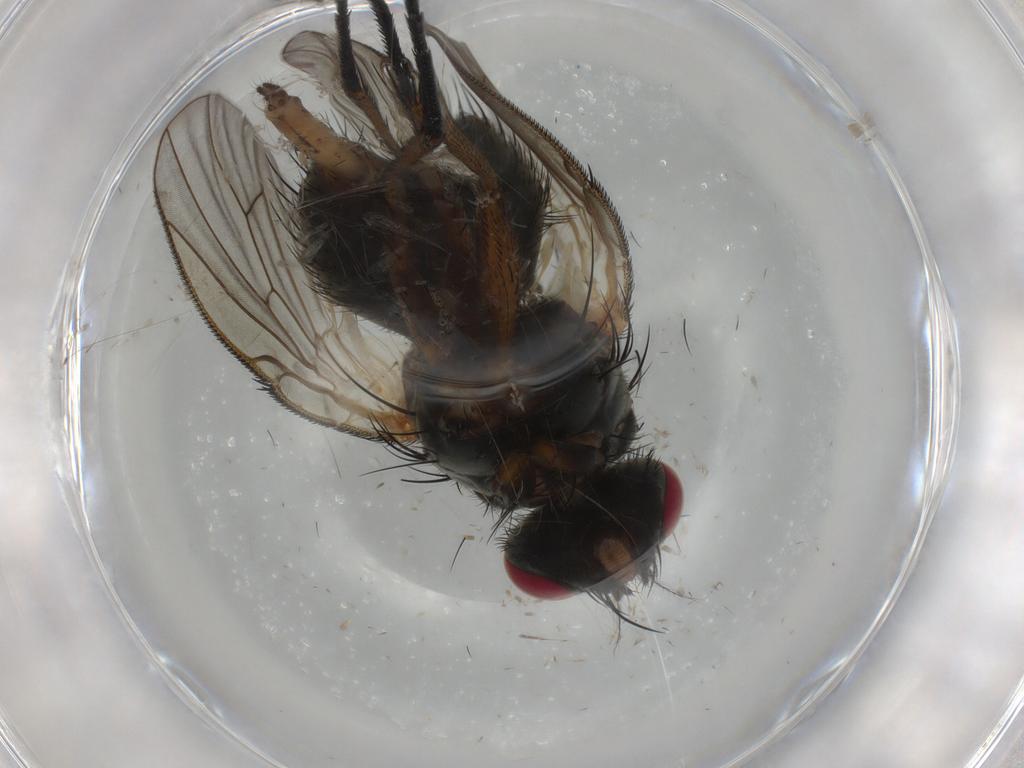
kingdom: Animalia
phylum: Arthropoda
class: Insecta
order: Diptera
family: Muscidae
